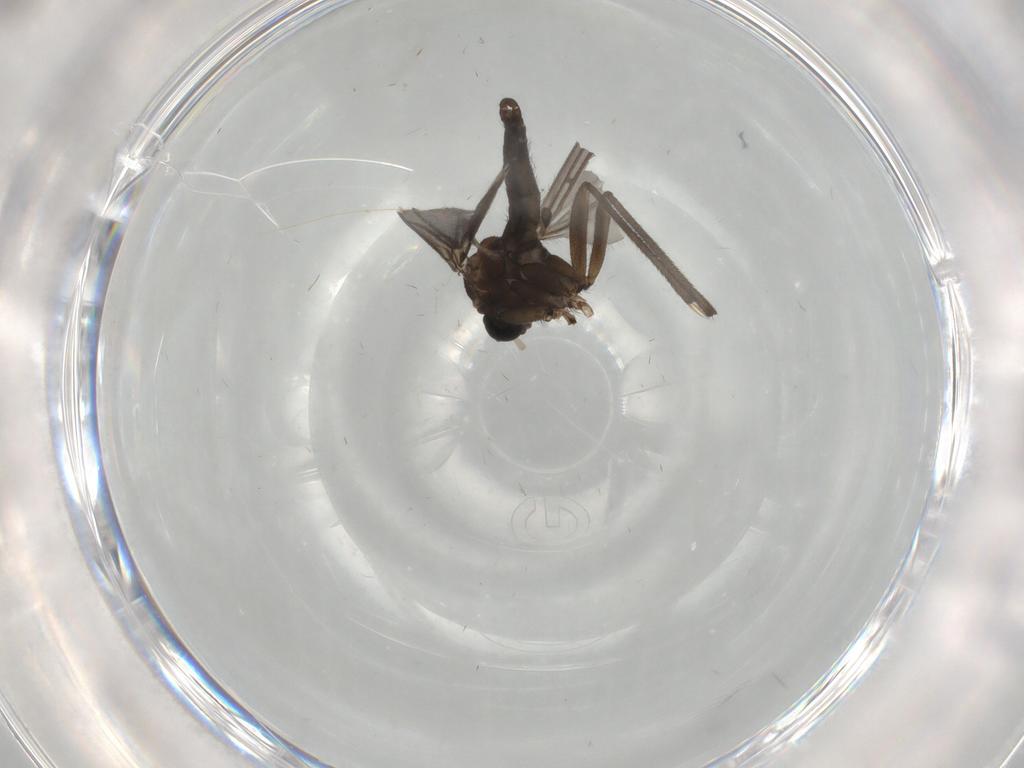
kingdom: Animalia
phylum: Arthropoda
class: Insecta
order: Diptera
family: Sciaridae
